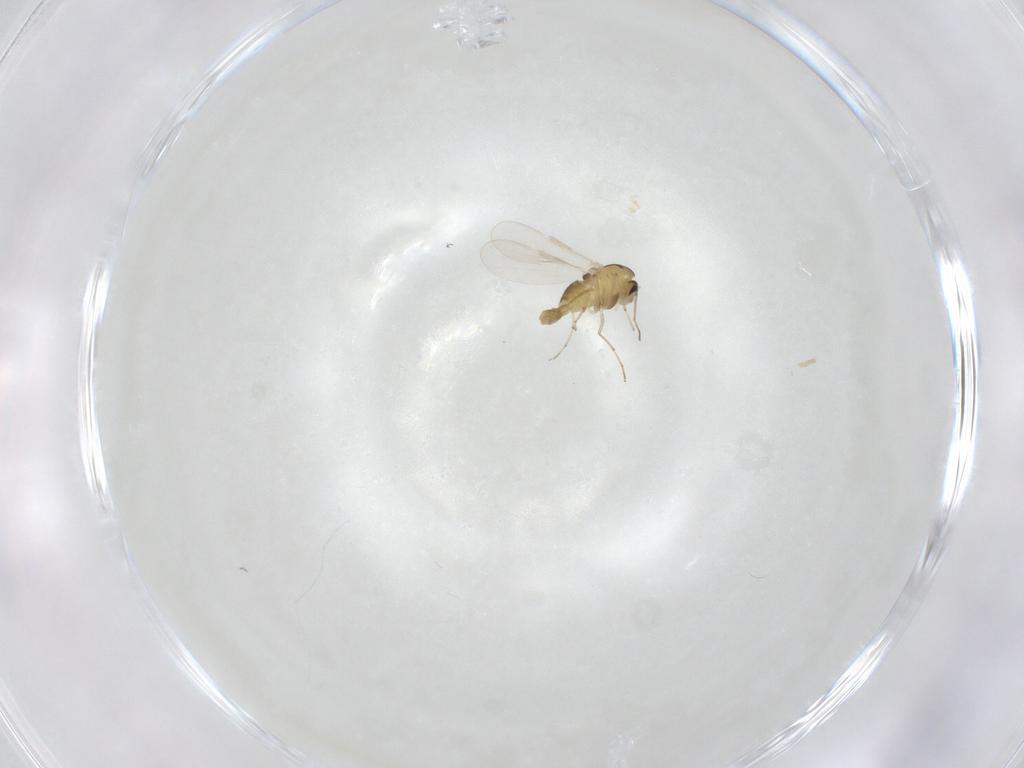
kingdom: Animalia
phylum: Arthropoda
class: Insecta
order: Diptera
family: Chironomidae
